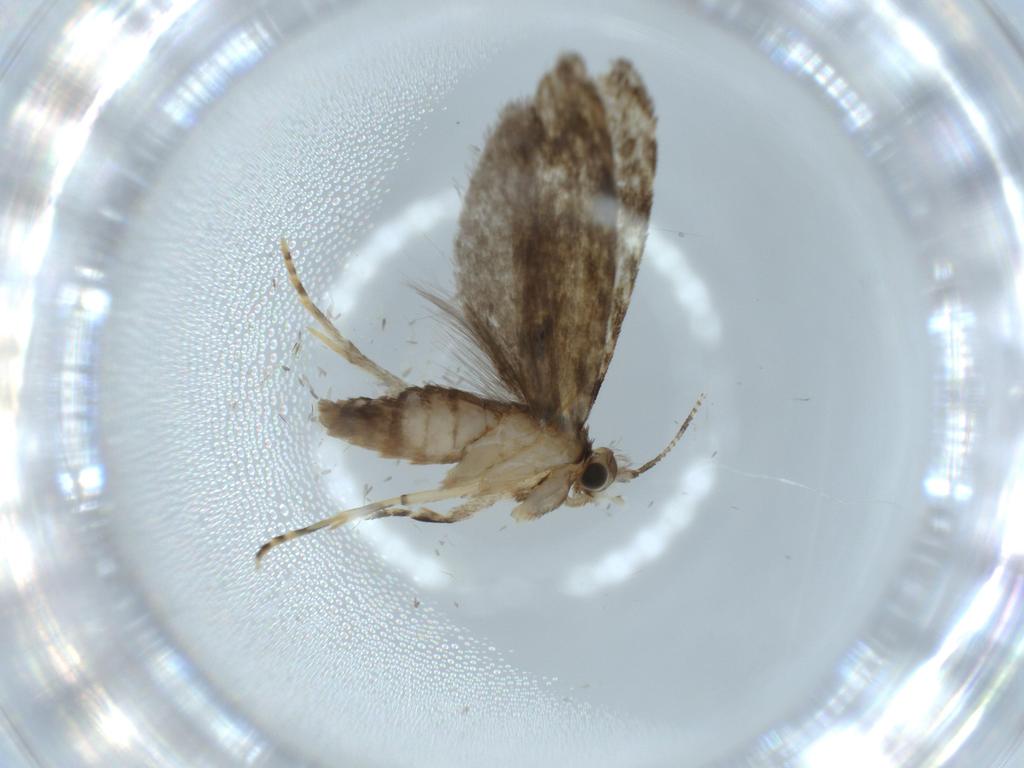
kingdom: Animalia
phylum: Arthropoda
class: Insecta
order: Lepidoptera
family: Tineidae
